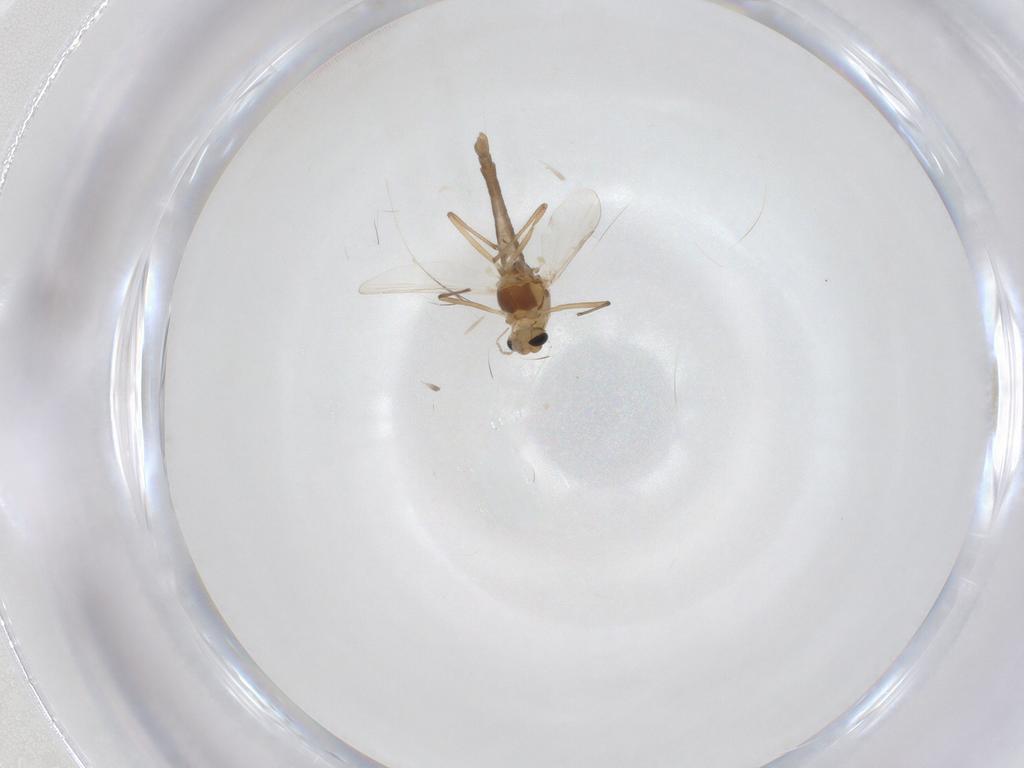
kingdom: Animalia
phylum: Arthropoda
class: Insecta
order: Diptera
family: Chironomidae
